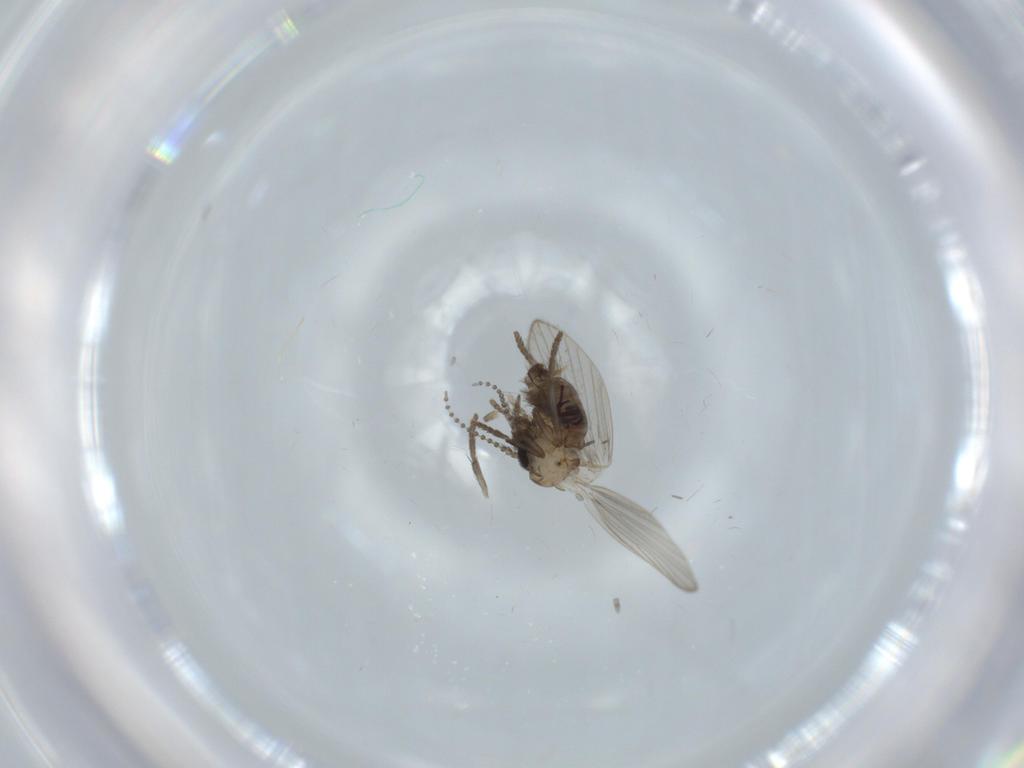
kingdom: Animalia
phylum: Arthropoda
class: Insecta
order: Diptera
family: Psychodidae
